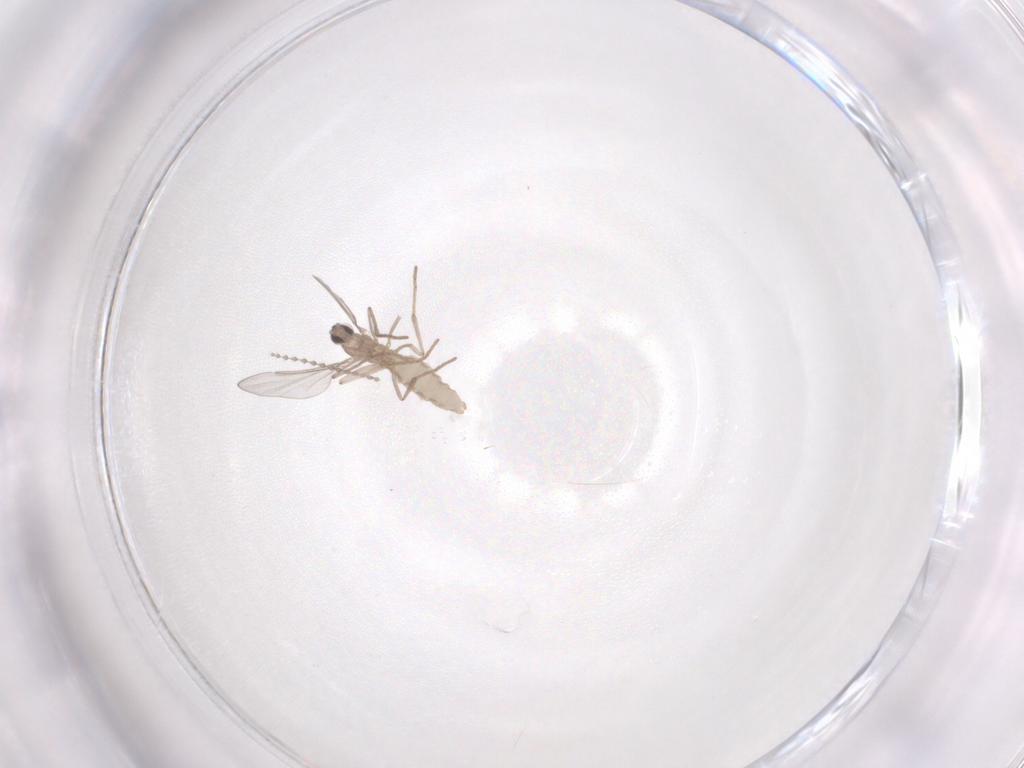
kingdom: Animalia
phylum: Arthropoda
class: Insecta
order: Diptera
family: Cecidomyiidae
